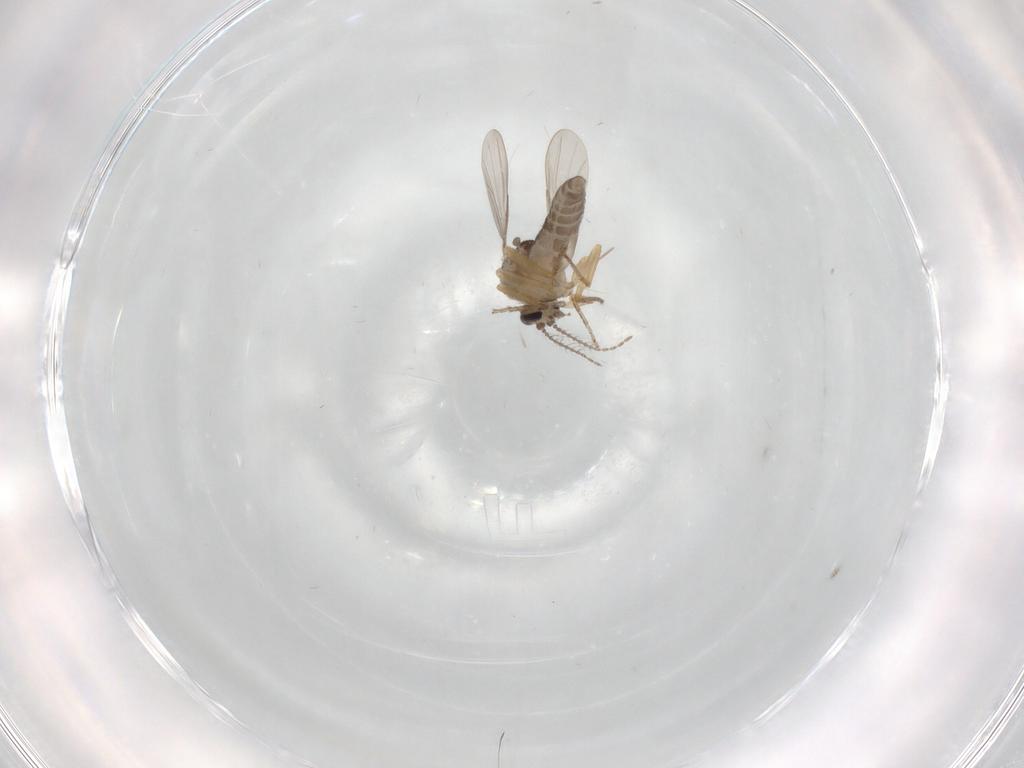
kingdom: Animalia
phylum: Arthropoda
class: Insecta
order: Diptera
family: Ceratopogonidae
